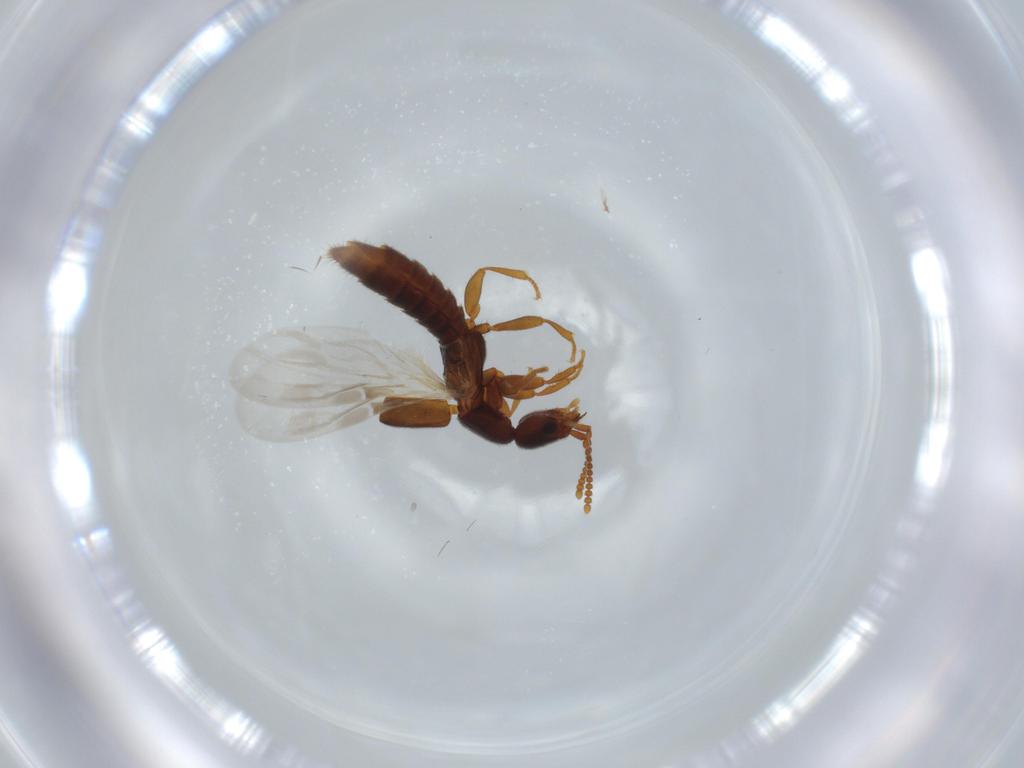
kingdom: Animalia
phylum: Arthropoda
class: Insecta
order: Coleoptera
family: Staphylinidae
